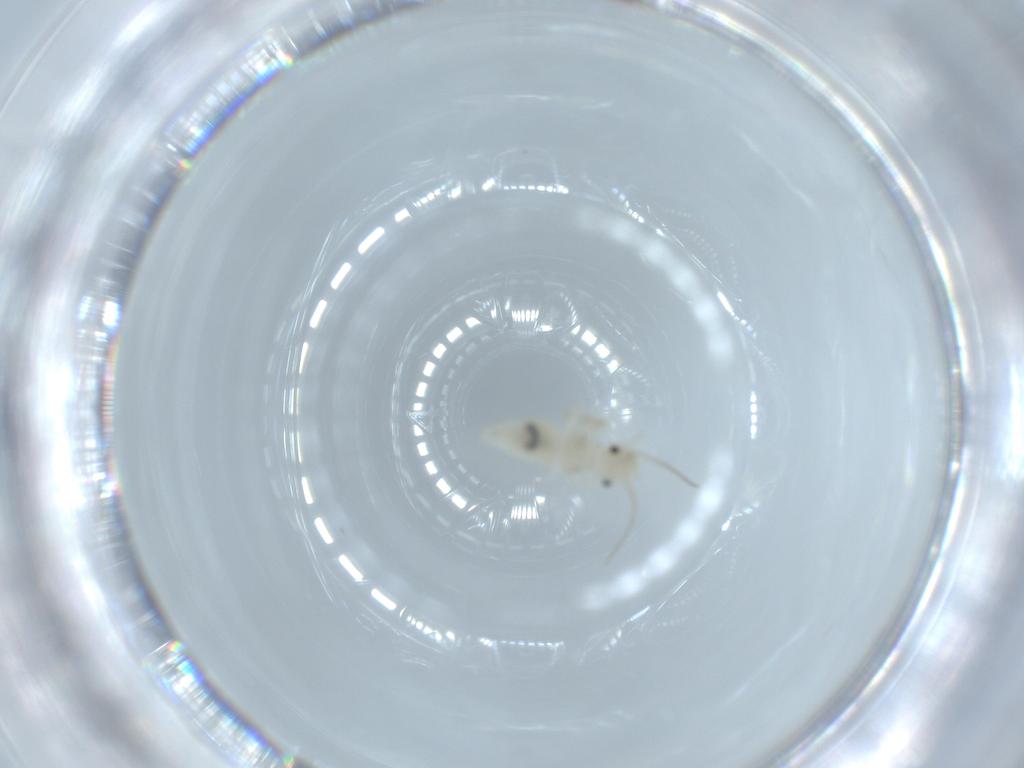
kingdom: Animalia
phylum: Arthropoda
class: Insecta
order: Psocodea
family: Caeciliusidae
